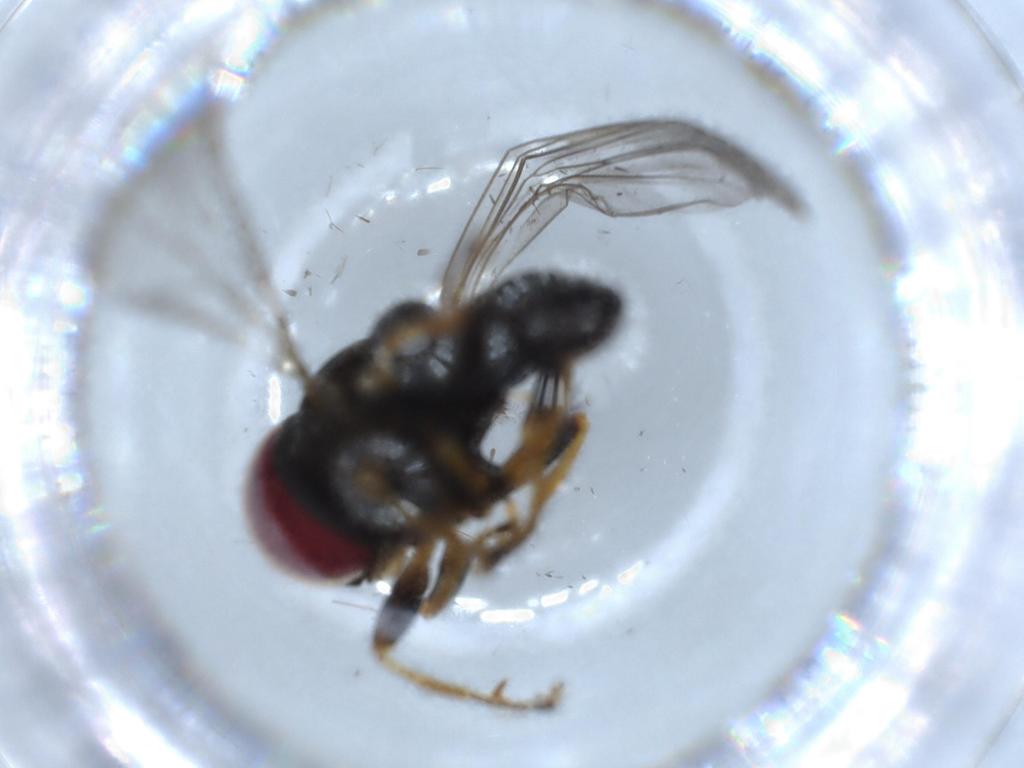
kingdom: Animalia
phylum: Arthropoda
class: Insecta
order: Diptera
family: Pipunculidae
